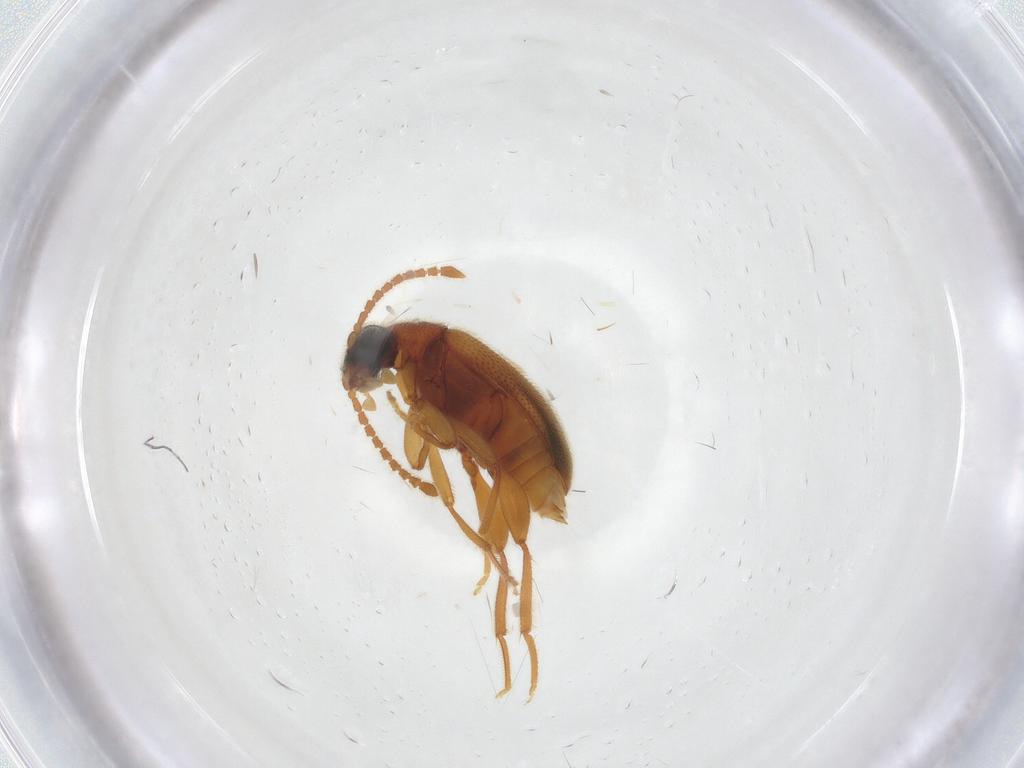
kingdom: Animalia
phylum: Arthropoda
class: Insecta
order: Coleoptera
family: Aderidae
